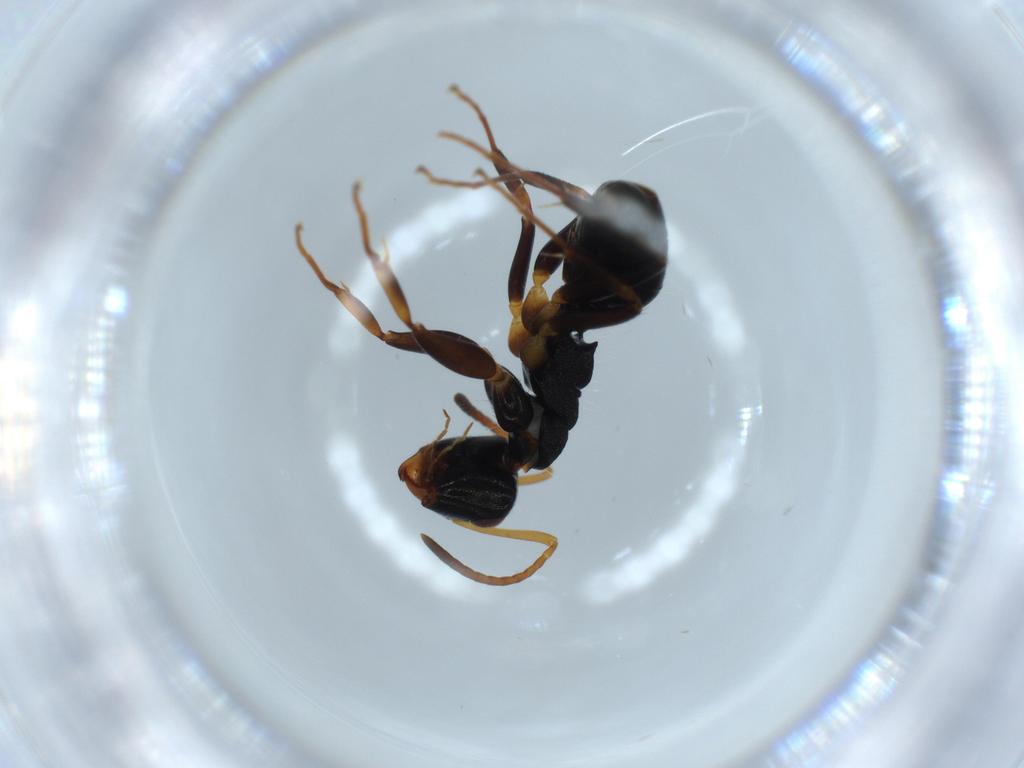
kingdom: Animalia
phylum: Arthropoda
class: Insecta
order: Hymenoptera
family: Formicidae
